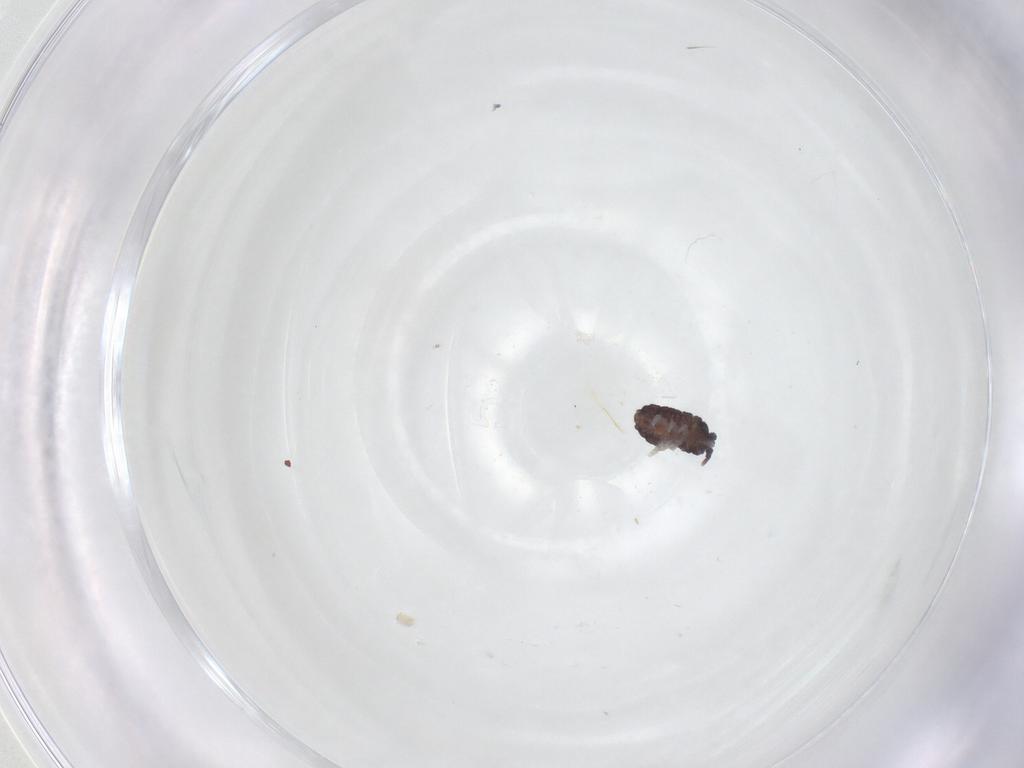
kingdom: Animalia
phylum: Arthropoda
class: Collembola
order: Poduromorpha
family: Neanuridae
